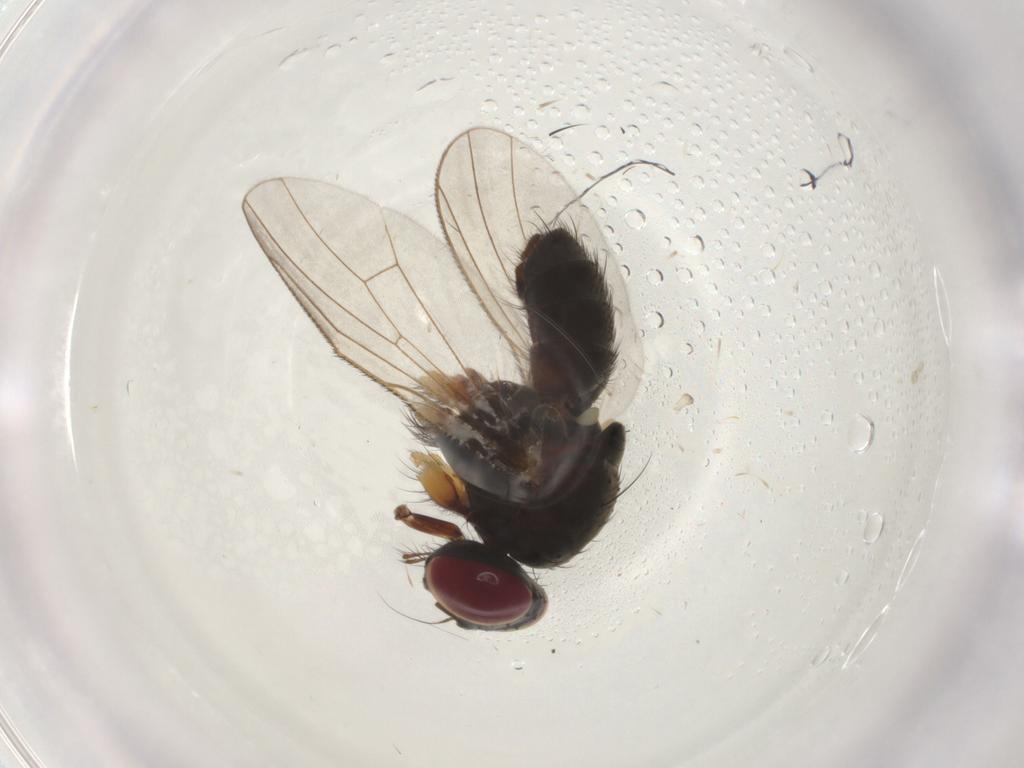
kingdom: Animalia
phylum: Arthropoda
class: Insecta
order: Diptera
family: Muscidae
